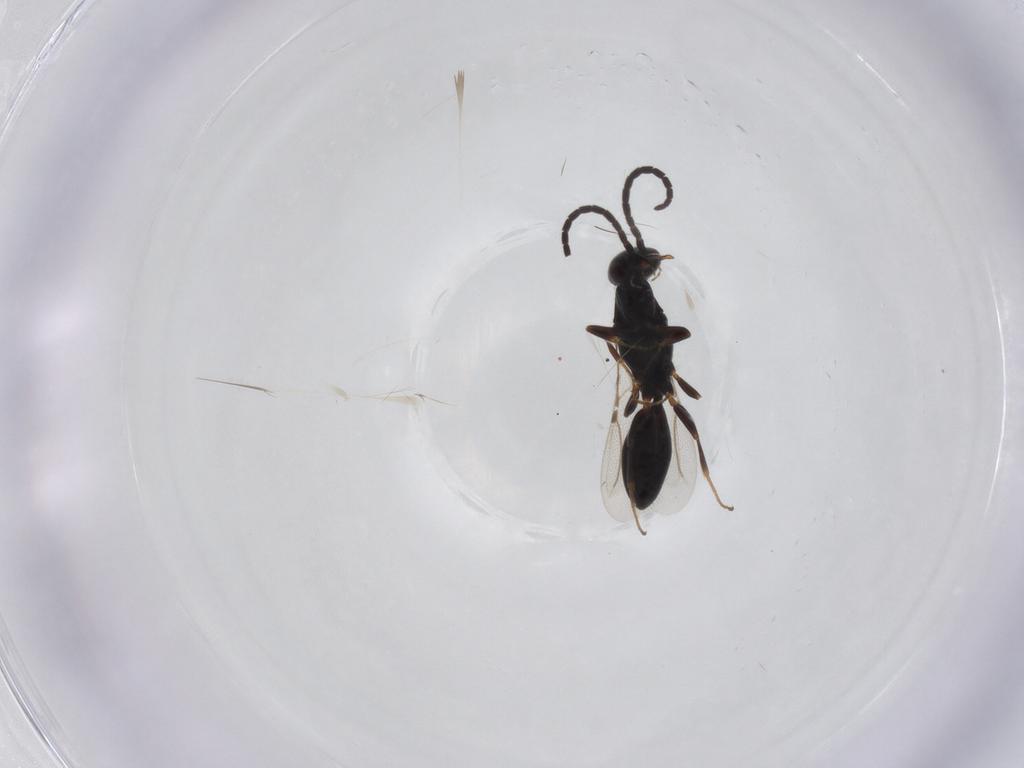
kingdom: Animalia
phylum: Arthropoda
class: Insecta
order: Hymenoptera
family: Bethylidae
